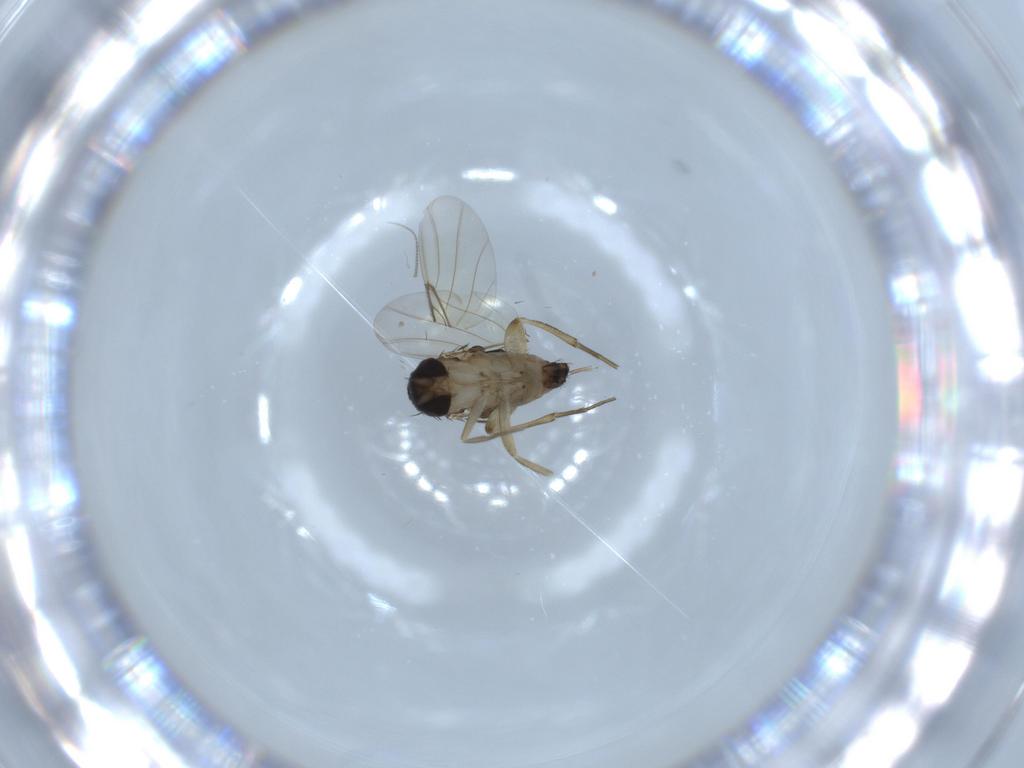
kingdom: Animalia
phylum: Arthropoda
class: Insecta
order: Diptera
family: Phoridae
